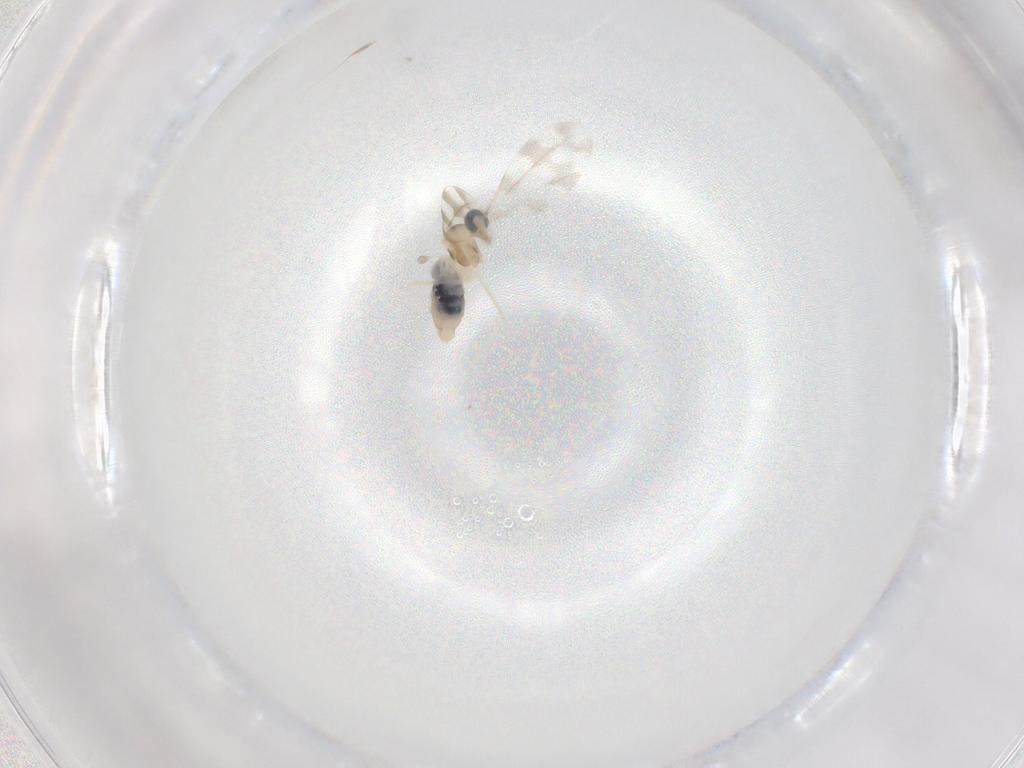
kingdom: Animalia
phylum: Arthropoda
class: Insecta
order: Diptera
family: Cecidomyiidae
